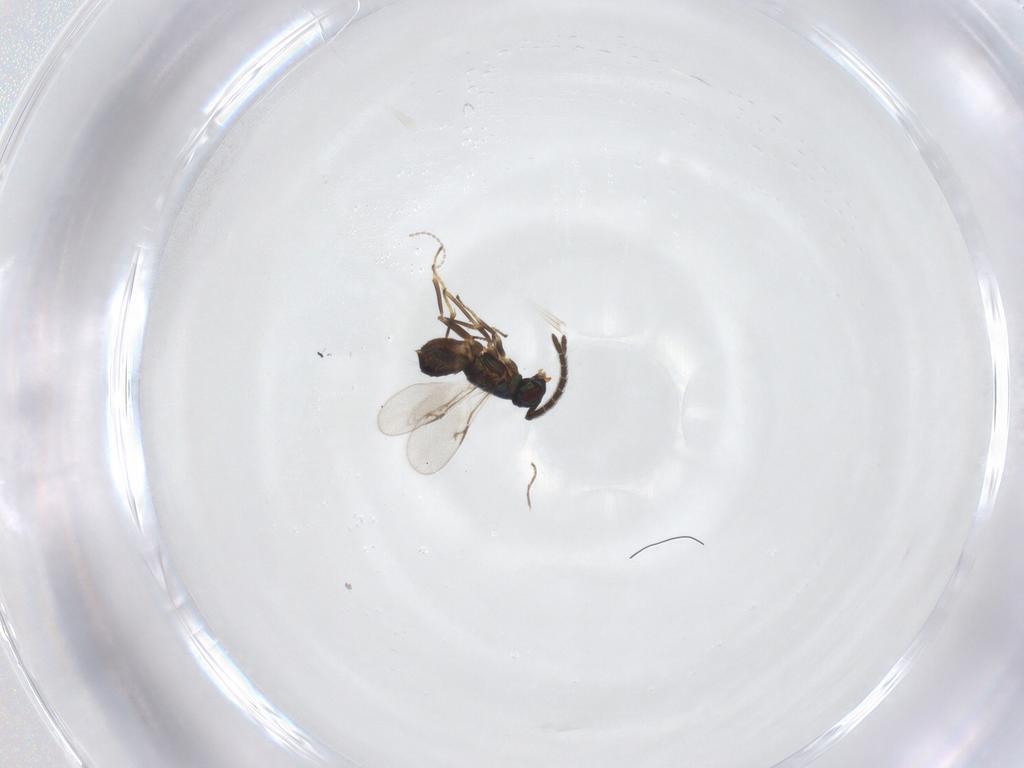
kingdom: Animalia
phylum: Arthropoda
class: Insecta
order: Hymenoptera
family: Encyrtidae
